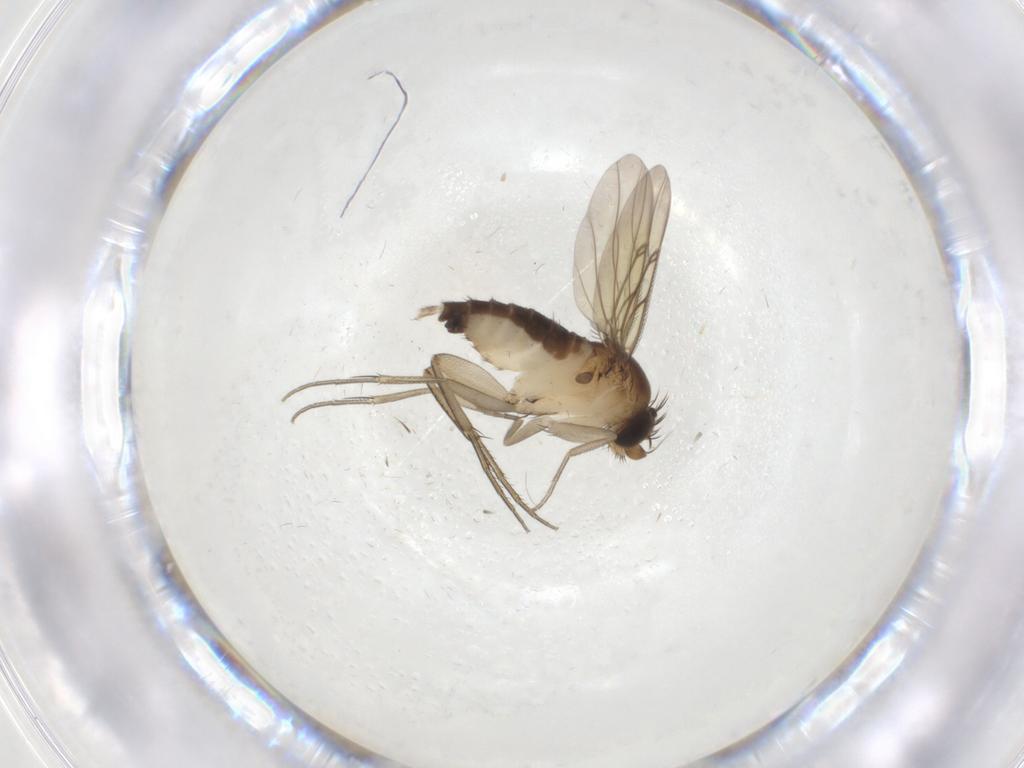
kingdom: Animalia
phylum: Arthropoda
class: Insecta
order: Diptera
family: Phoridae
